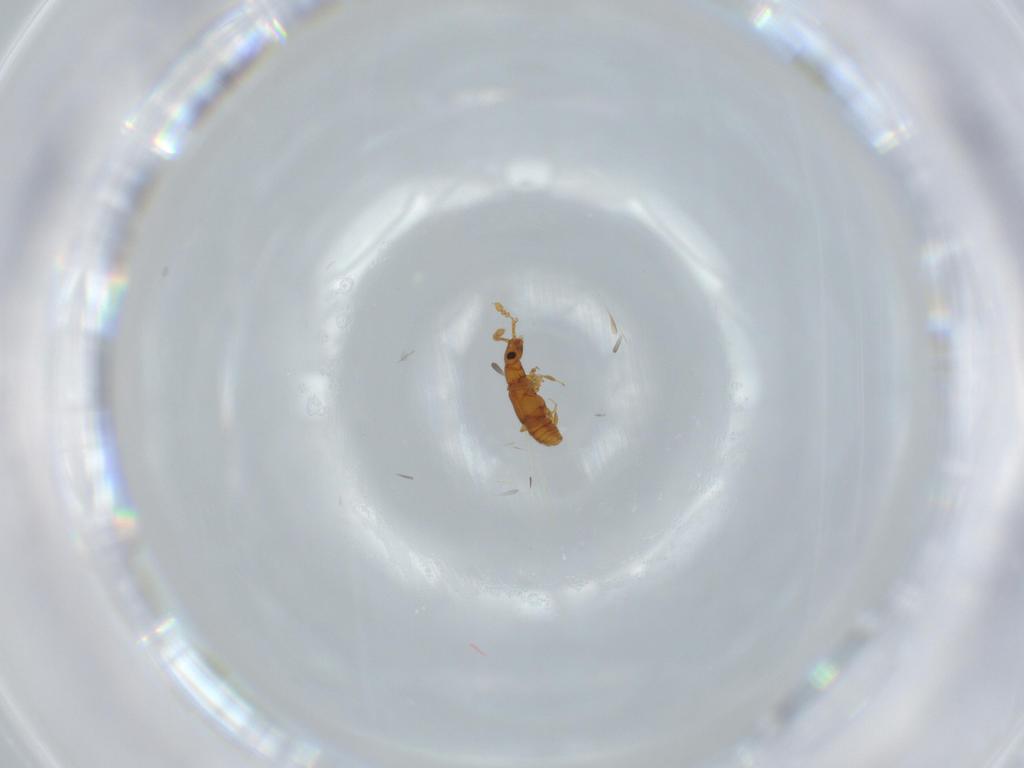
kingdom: Animalia
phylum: Arthropoda
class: Insecta
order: Coleoptera
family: Staphylinidae
